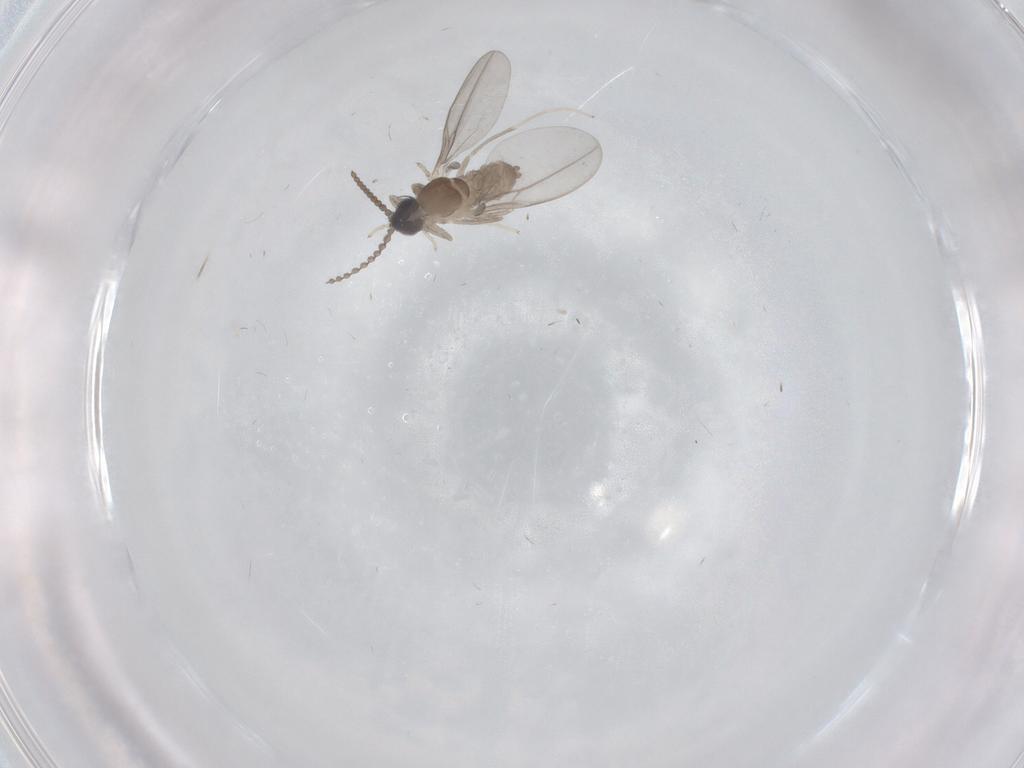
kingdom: Animalia
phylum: Arthropoda
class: Insecta
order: Diptera
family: Cecidomyiidae
